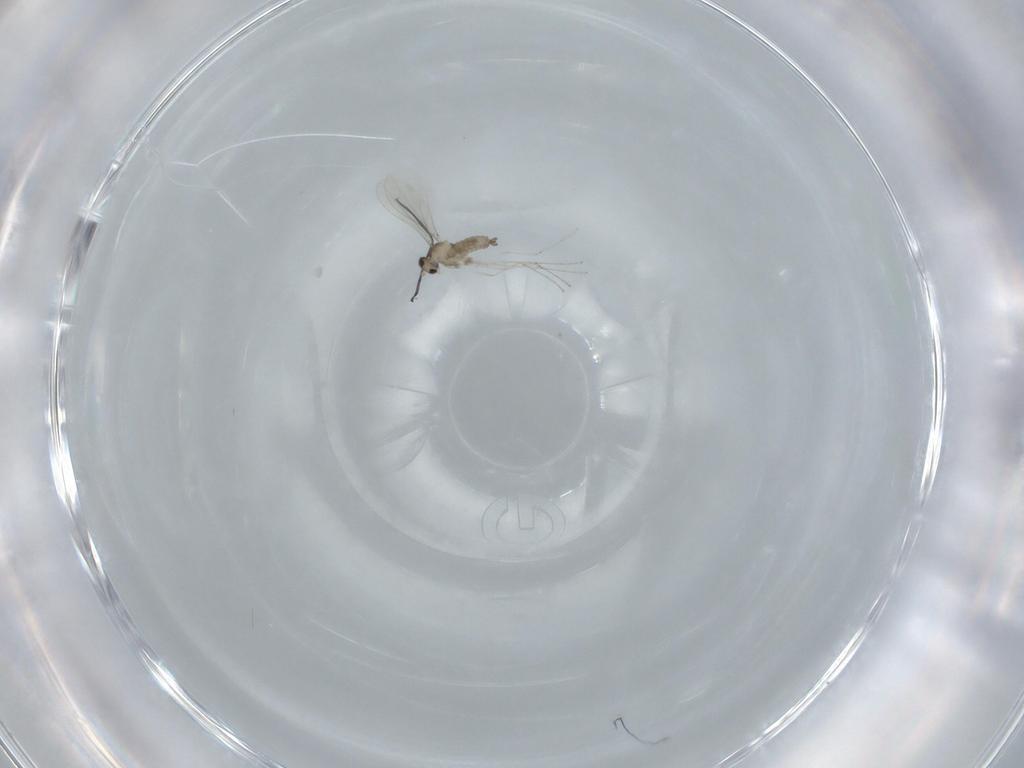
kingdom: Animalia
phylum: Arthropoda
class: Insecta
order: Diptera
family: Cecidomyiidae
